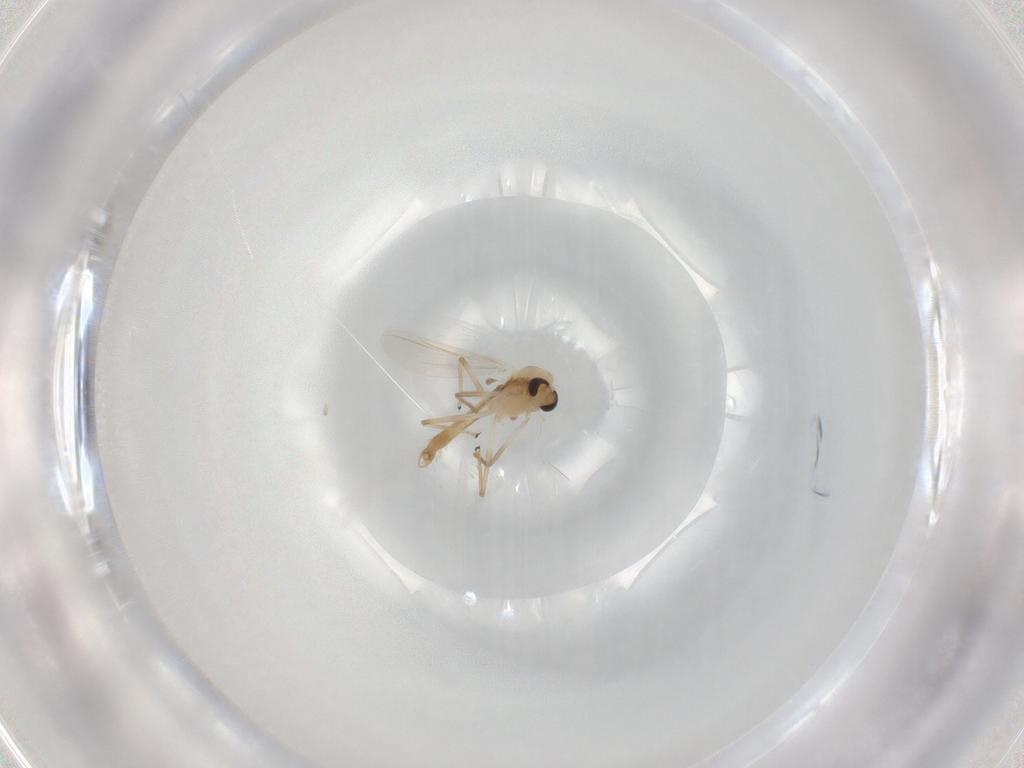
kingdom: Animalia
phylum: Arthropoda
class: Insecta
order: Diptera
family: Chironomidae
